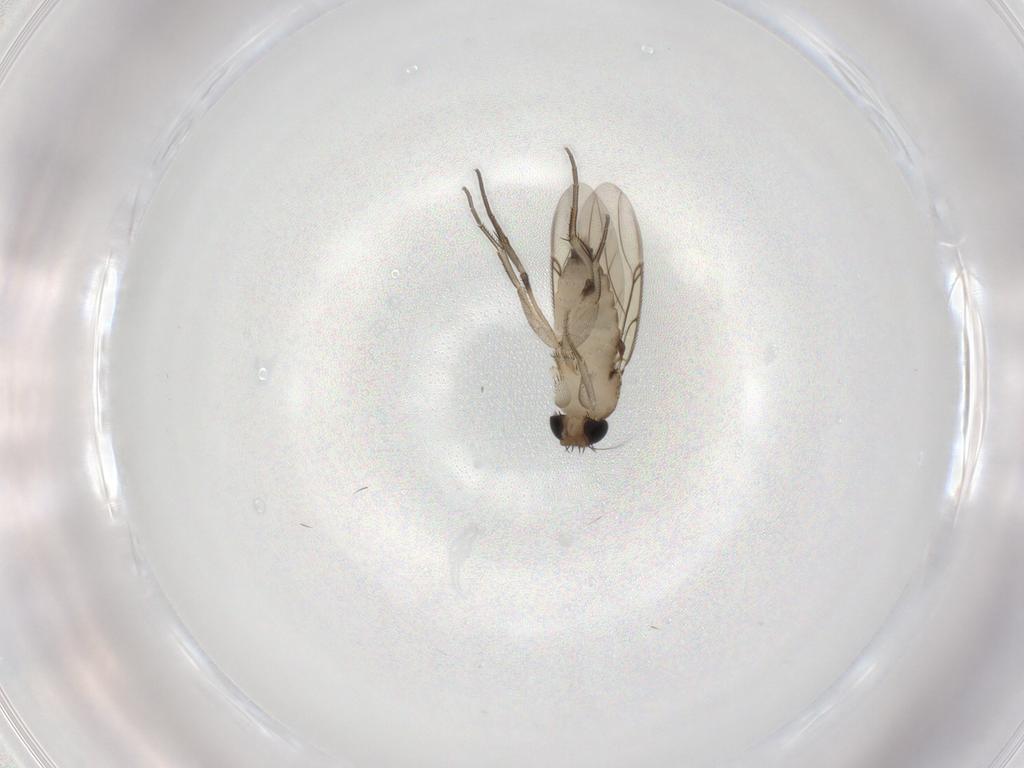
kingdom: Animalia
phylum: Arthropoda
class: Insecta
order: Diptera
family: Phoridae
